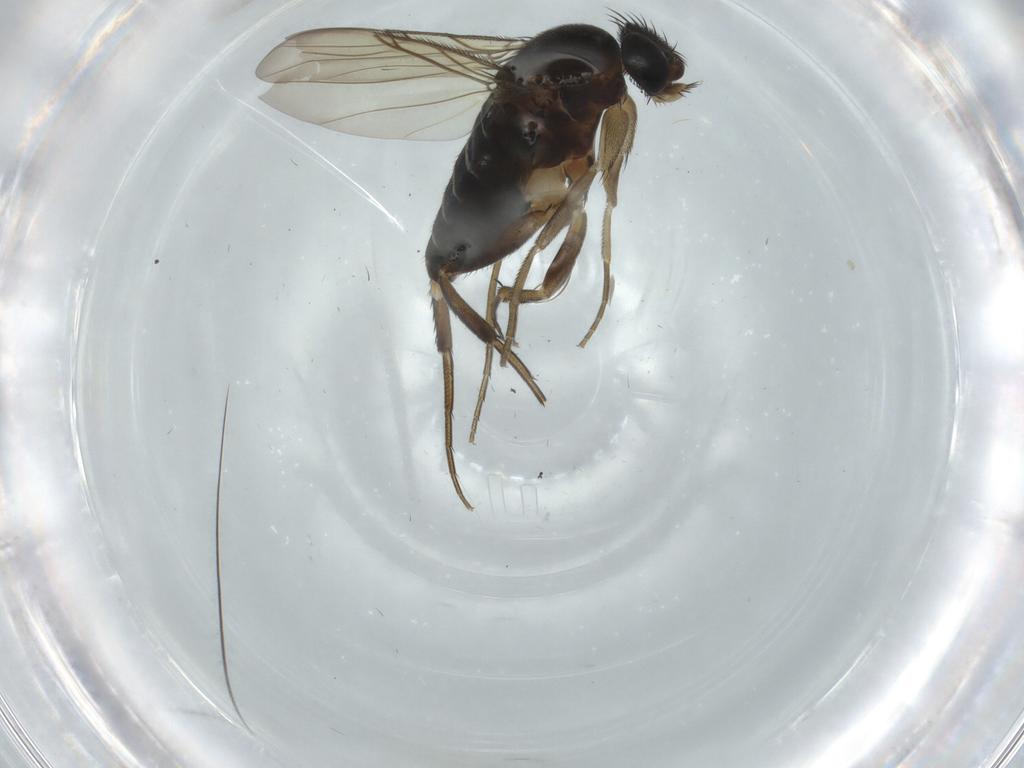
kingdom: Animalia
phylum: Arthropoda
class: Insecta
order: Diptera
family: Phoridae
